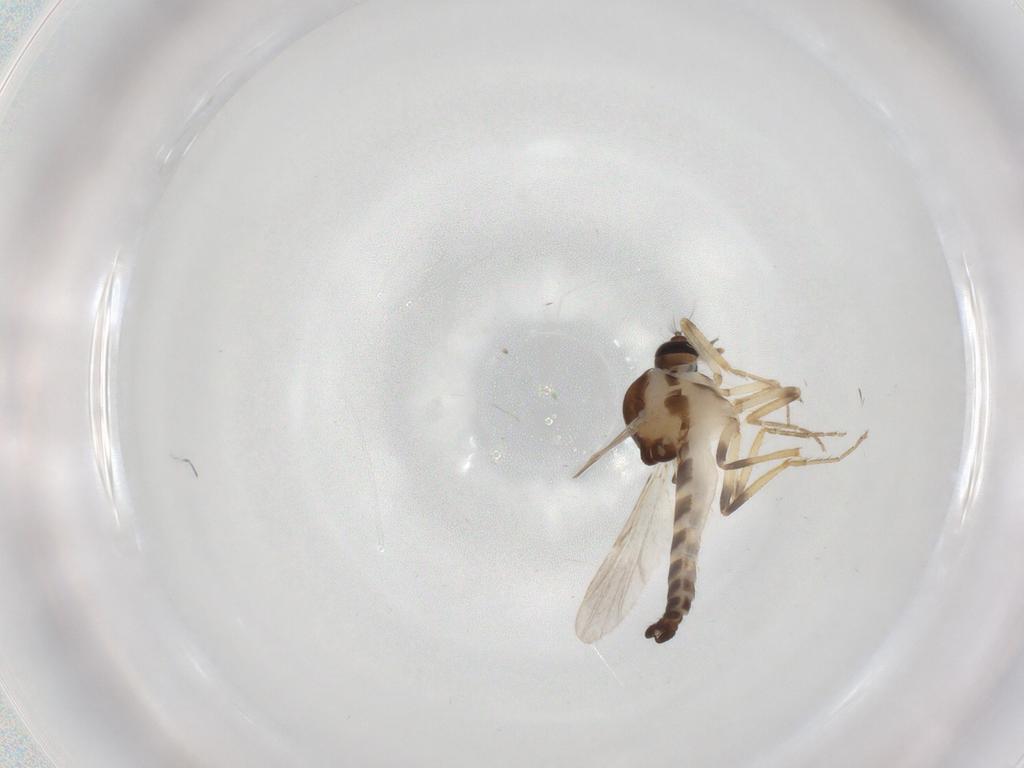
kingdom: Animalia
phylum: Arthropoda
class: Insecta
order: Diptera
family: Ceratopogonidae
